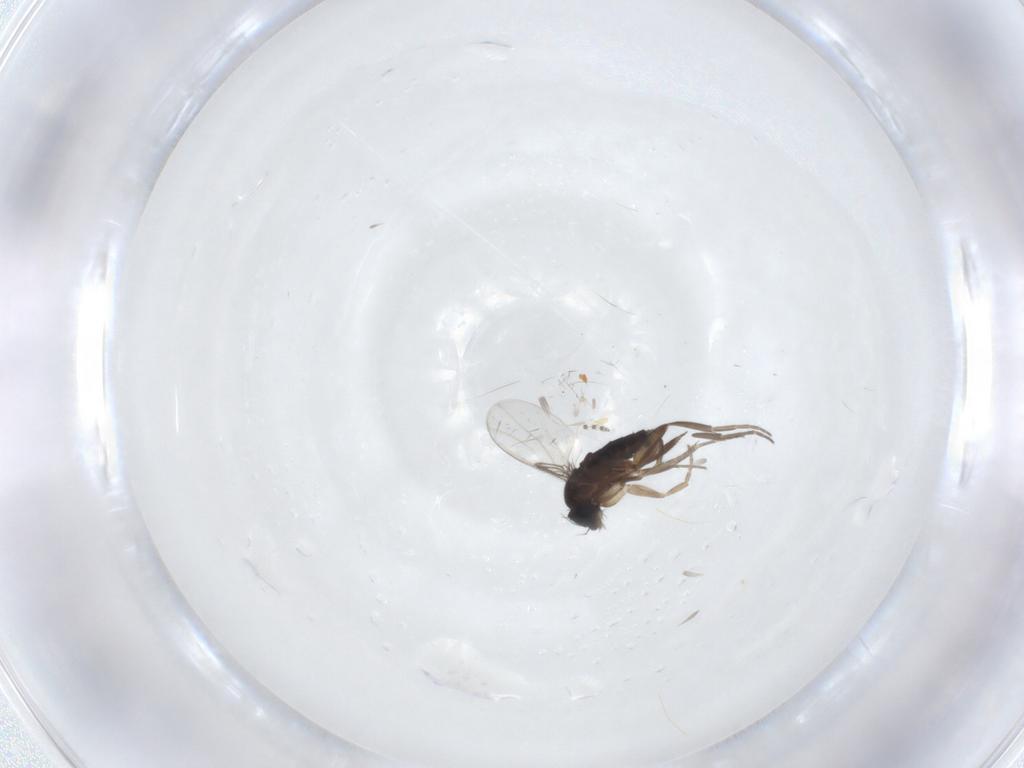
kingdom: Animalia
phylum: Arthropoda
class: Insecta
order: Diptera
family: Phoridae
